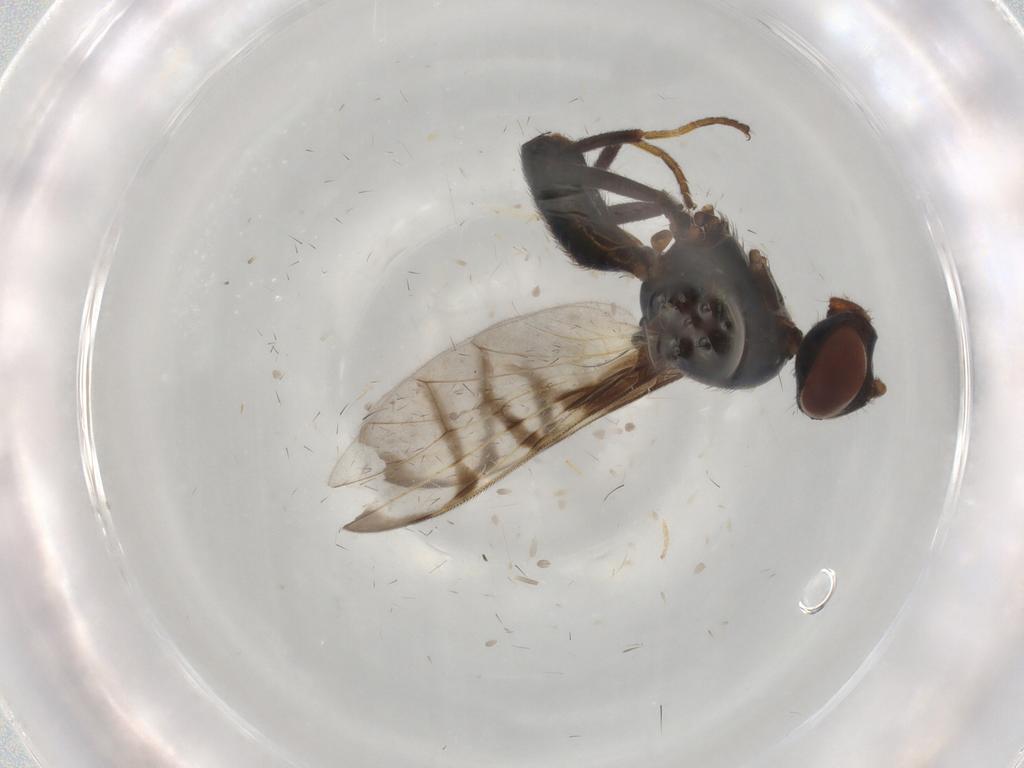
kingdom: Animalia
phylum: Arthropoda
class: Insecta
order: Diptera
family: Chloropidae
